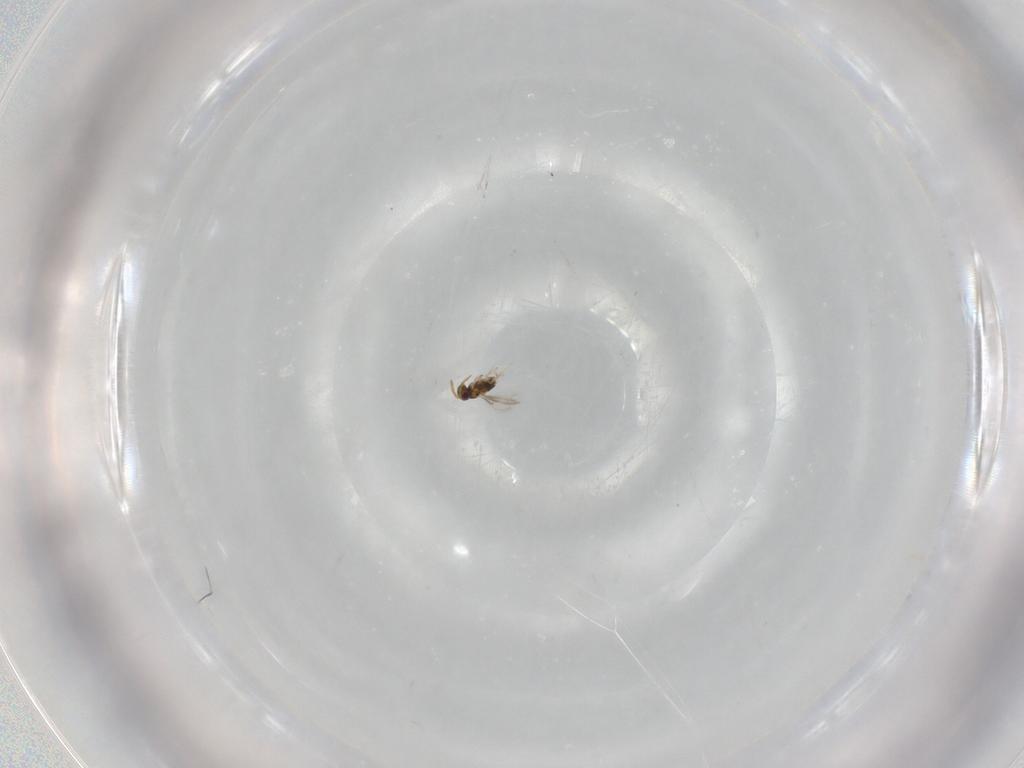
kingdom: Animalia
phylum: Arthropoda
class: Insecta
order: Hymenoptera
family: Aphelinidae
